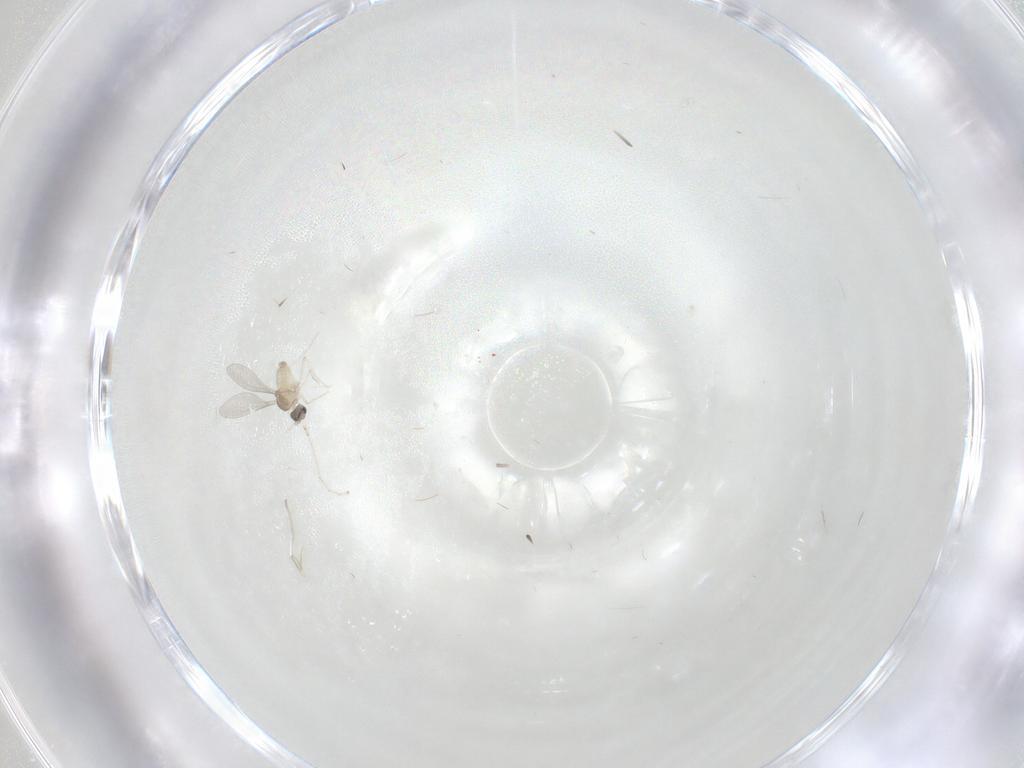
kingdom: Animalia
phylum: Arthropoda
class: Insecta
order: Diptera
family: Cecidomyiidae
